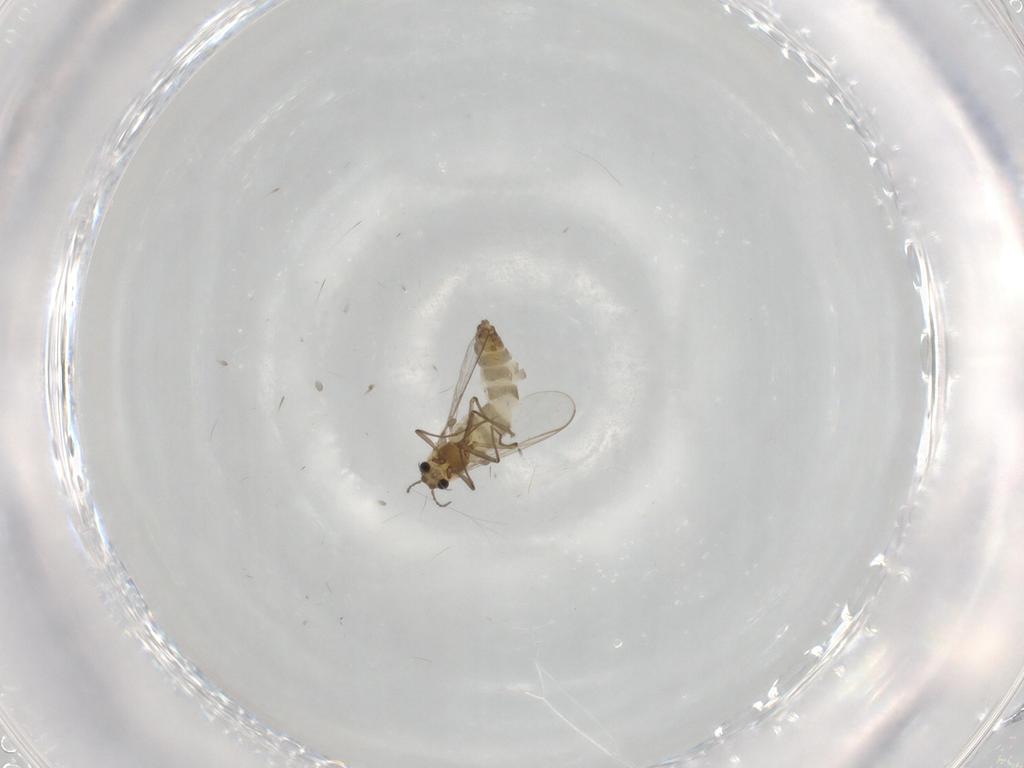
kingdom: Animalia
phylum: Arthropoda
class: Insecta
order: Diptera
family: Chironomidae
